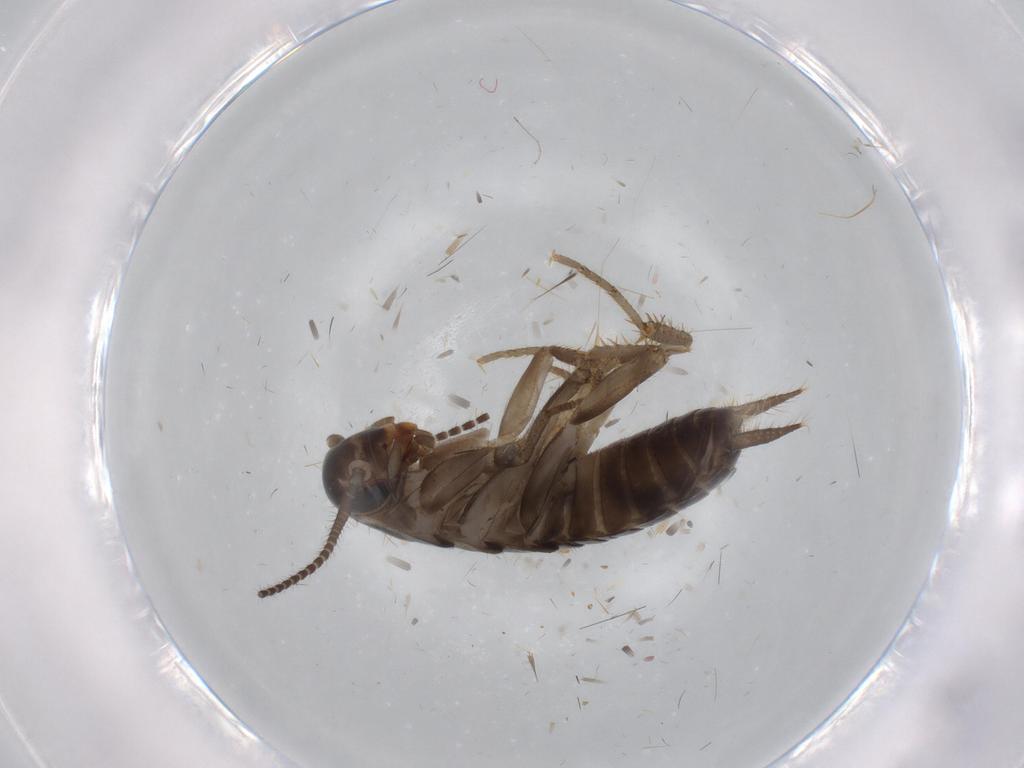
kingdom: Animalia
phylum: Arthropoda
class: Insecta
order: Blattodea
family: Ectobiidae
